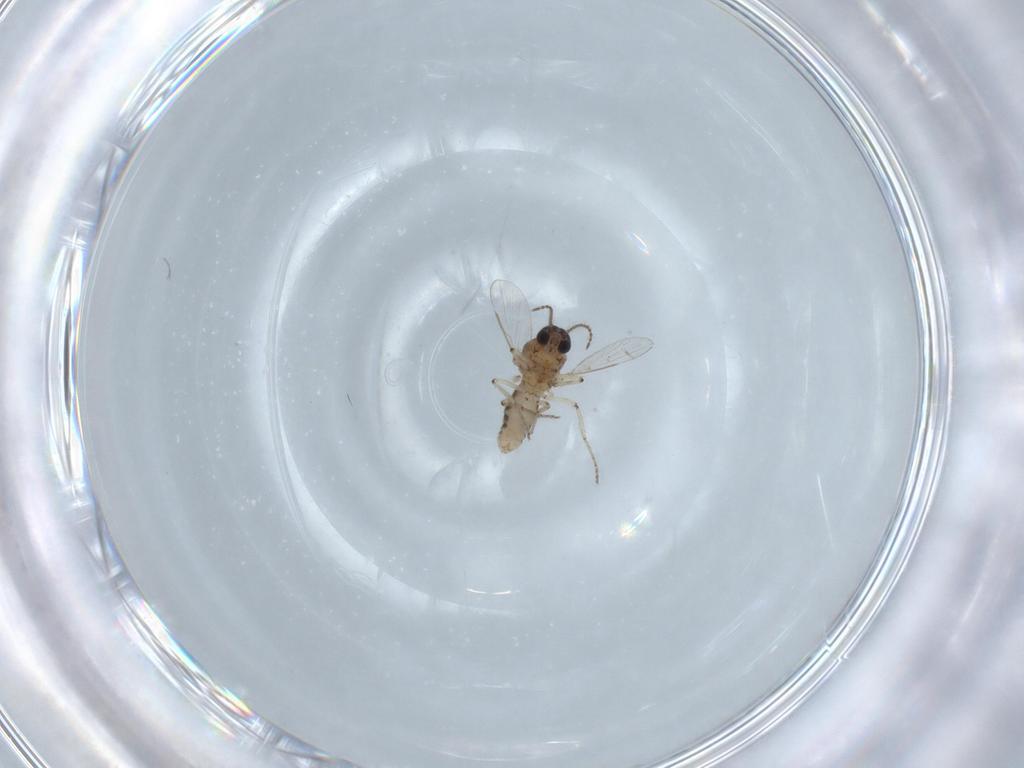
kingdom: Animalia
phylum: Arthropoda
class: Insecta
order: Diptera
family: Ceratopogonidae
